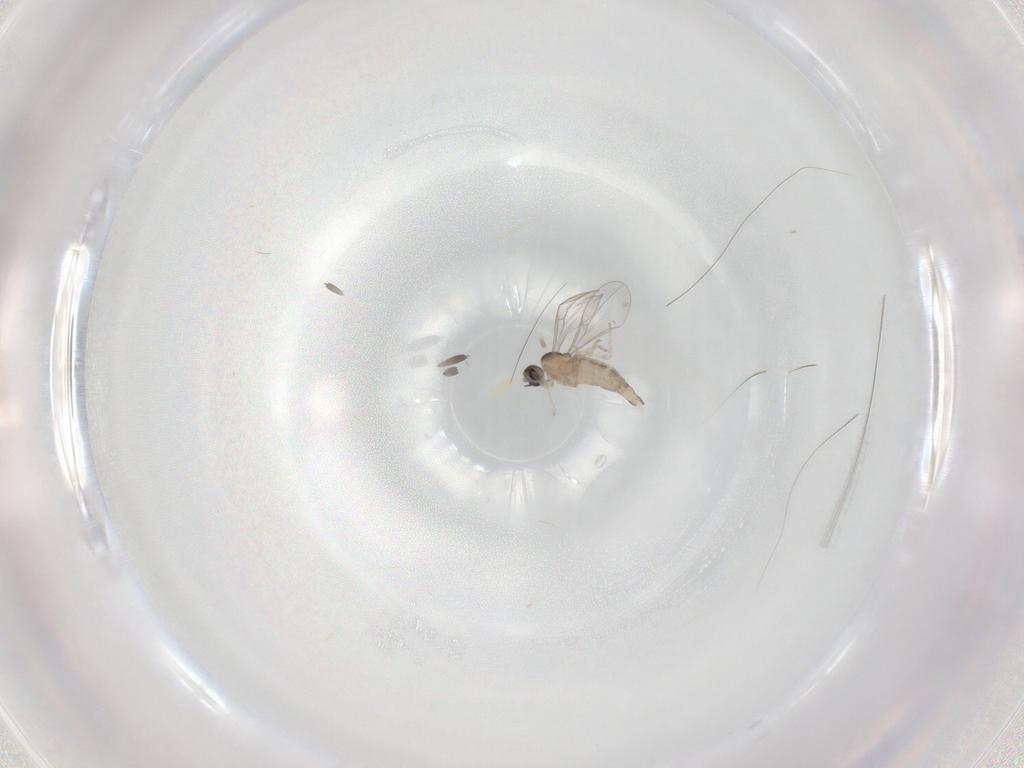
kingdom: Animalia
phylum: Arthropoda
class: Insecta
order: Diptera
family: Cecidomyiidae
